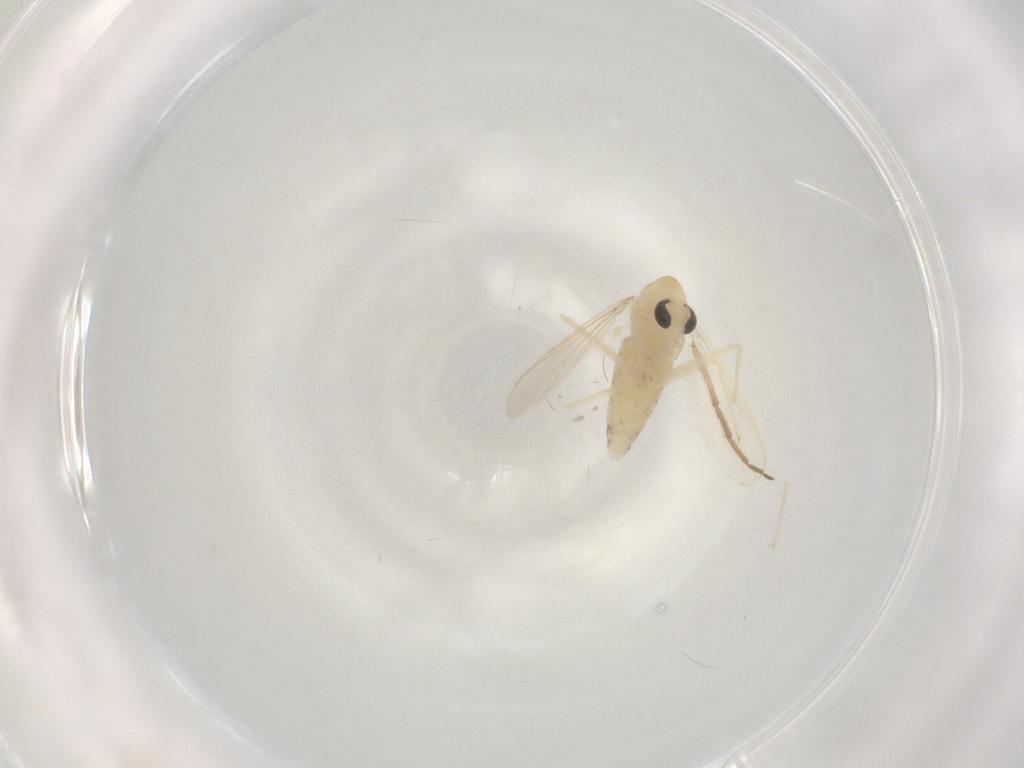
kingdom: Animalia
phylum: Arthropoda
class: Insecta
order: Diptera
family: Chironomidae
